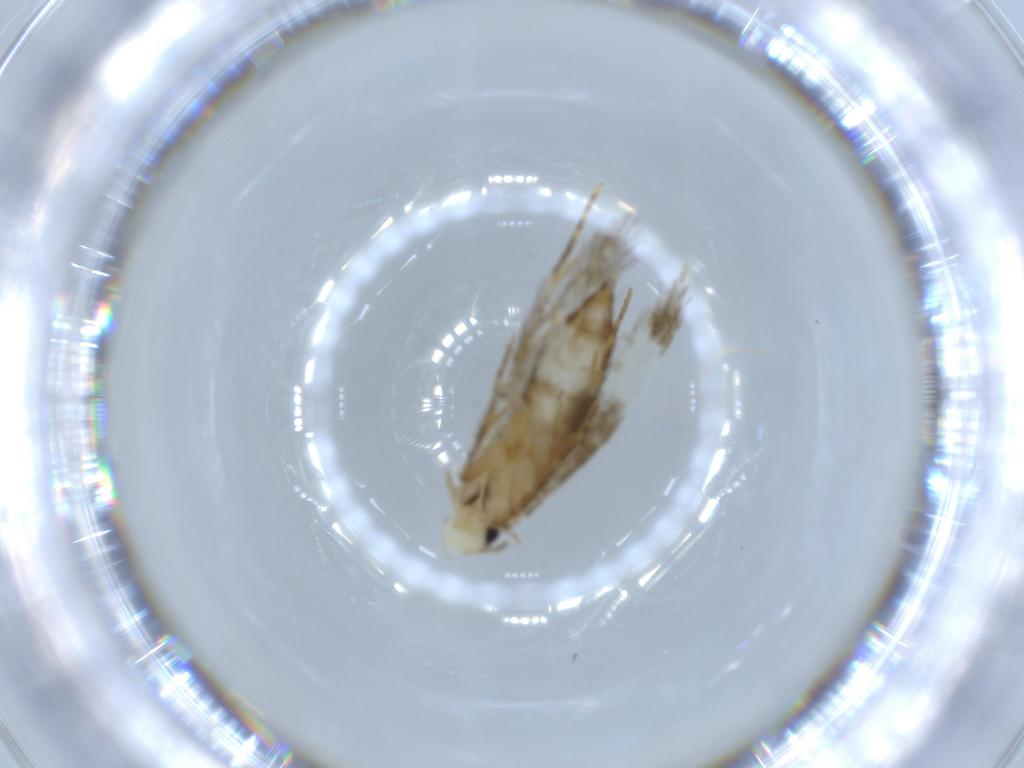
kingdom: Animalia
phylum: Arthropoda
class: Insecta
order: Lepidoptera
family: Tineidae
